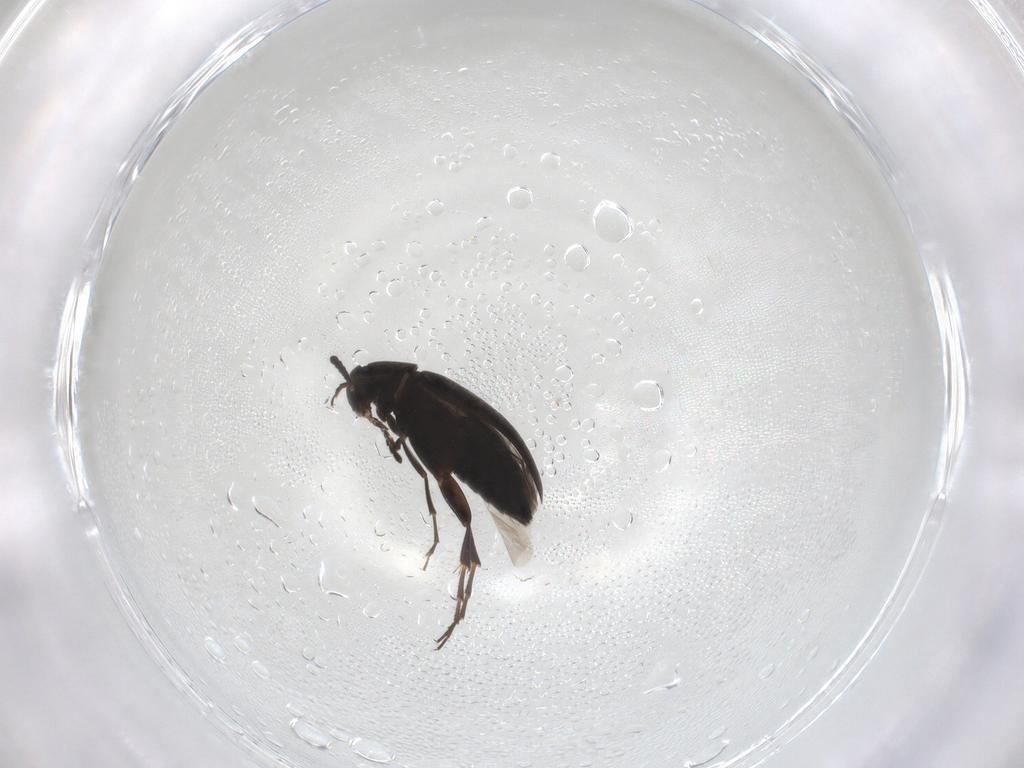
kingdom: Animalia
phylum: Arthropoda
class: Insecta
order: Coleoptera
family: Scraptiidae
